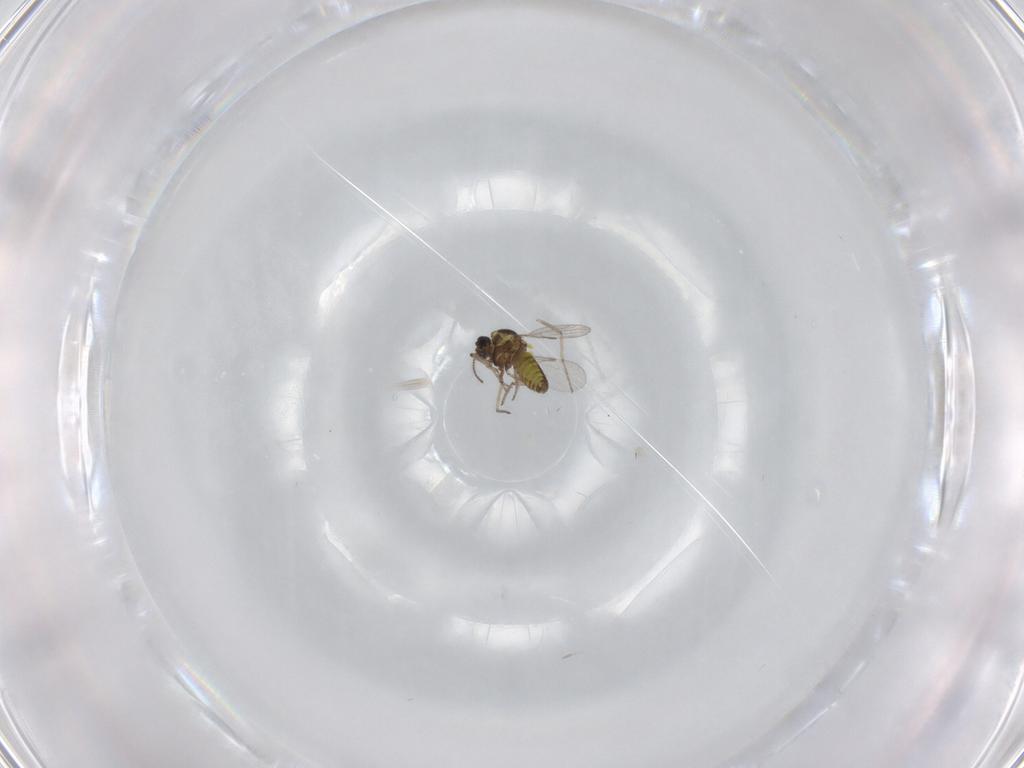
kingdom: Animalia
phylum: Arthropoda
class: Insecta
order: Diptera
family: Ceratopogonidae
